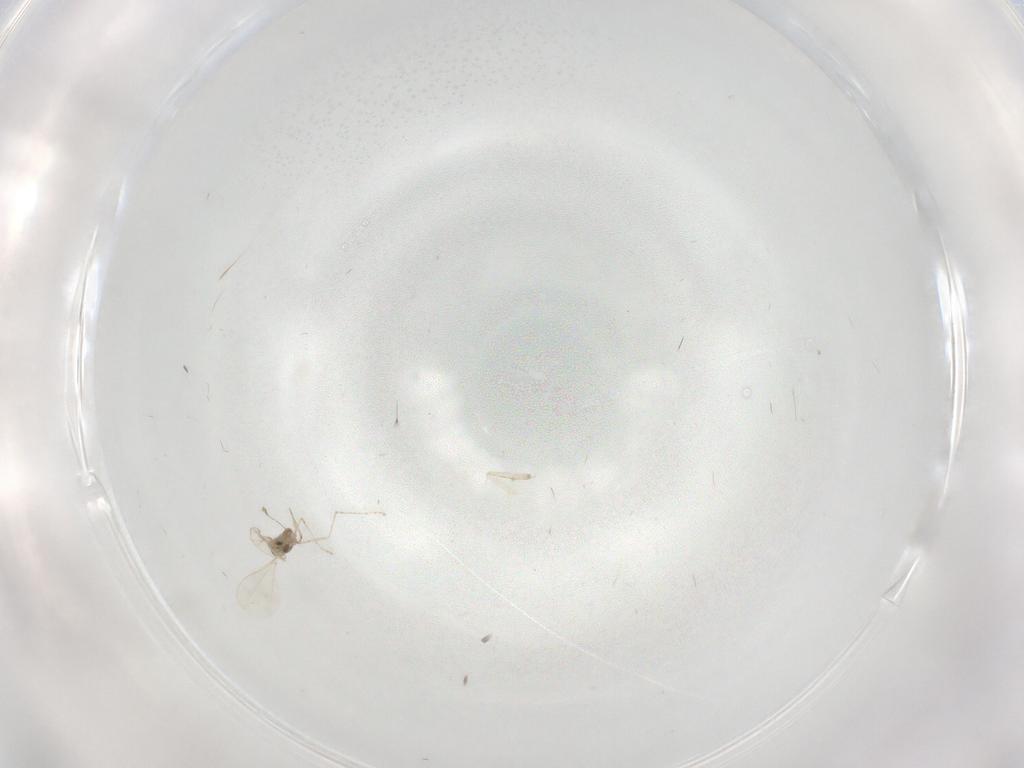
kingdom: Animalia
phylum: Arthropoda
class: Insecta
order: Diptera
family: Psychodidae
